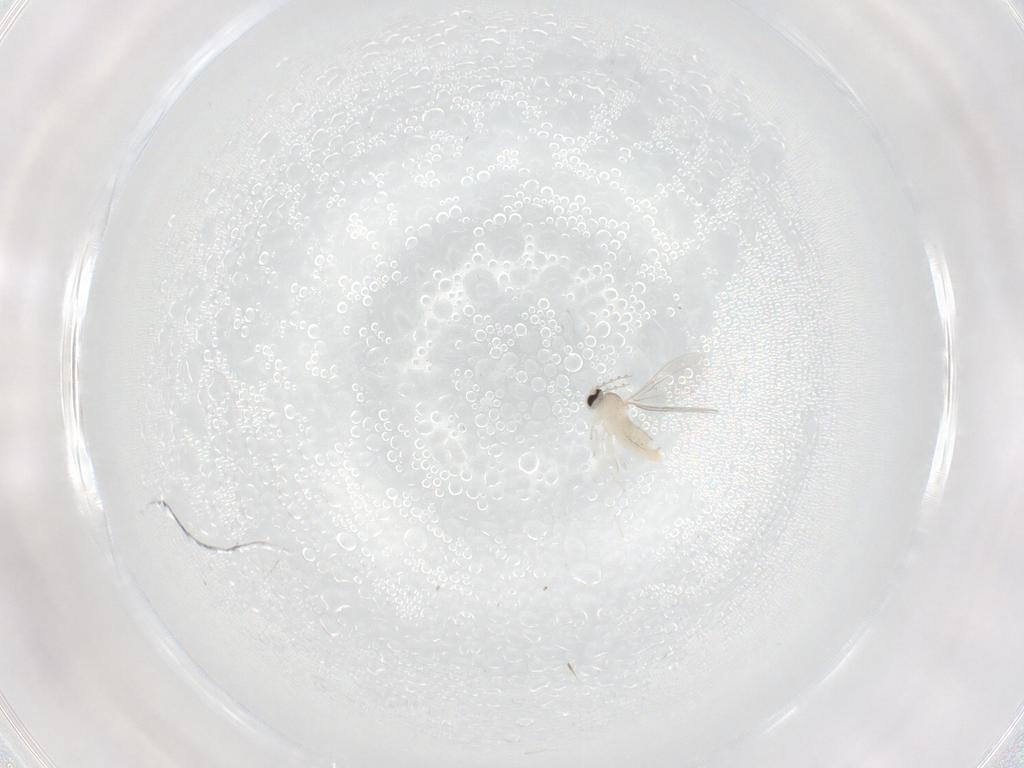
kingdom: Animalia
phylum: Arthropoda
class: Insecta
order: Diptera
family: Cecidomyiidae
